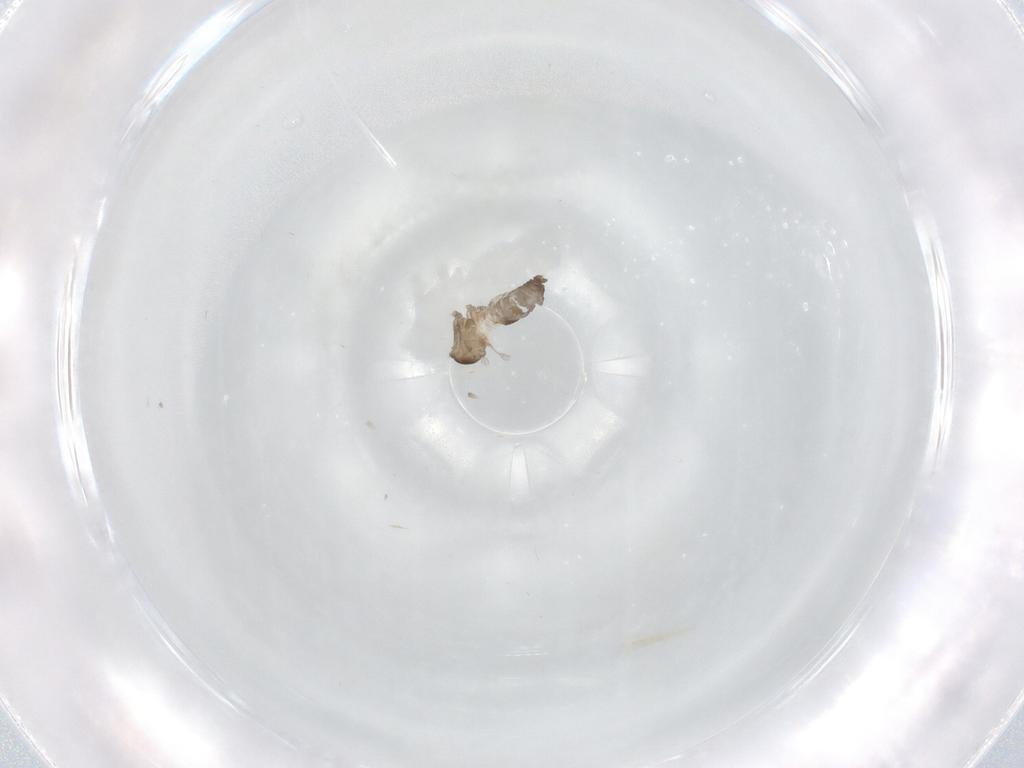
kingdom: Animalia
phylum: Arthropoda
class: Insecta
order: Diptera
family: Cecidomyiidae
